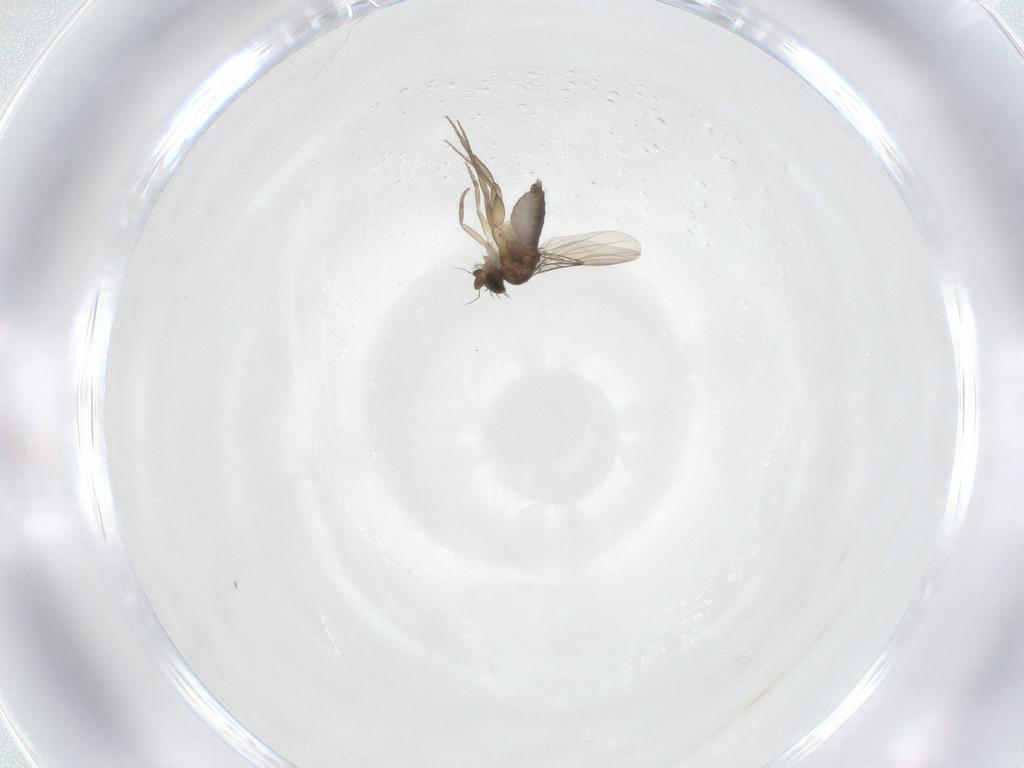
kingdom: Animalia
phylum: Arthropoda
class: Insecta
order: Diptera
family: Phoridae
